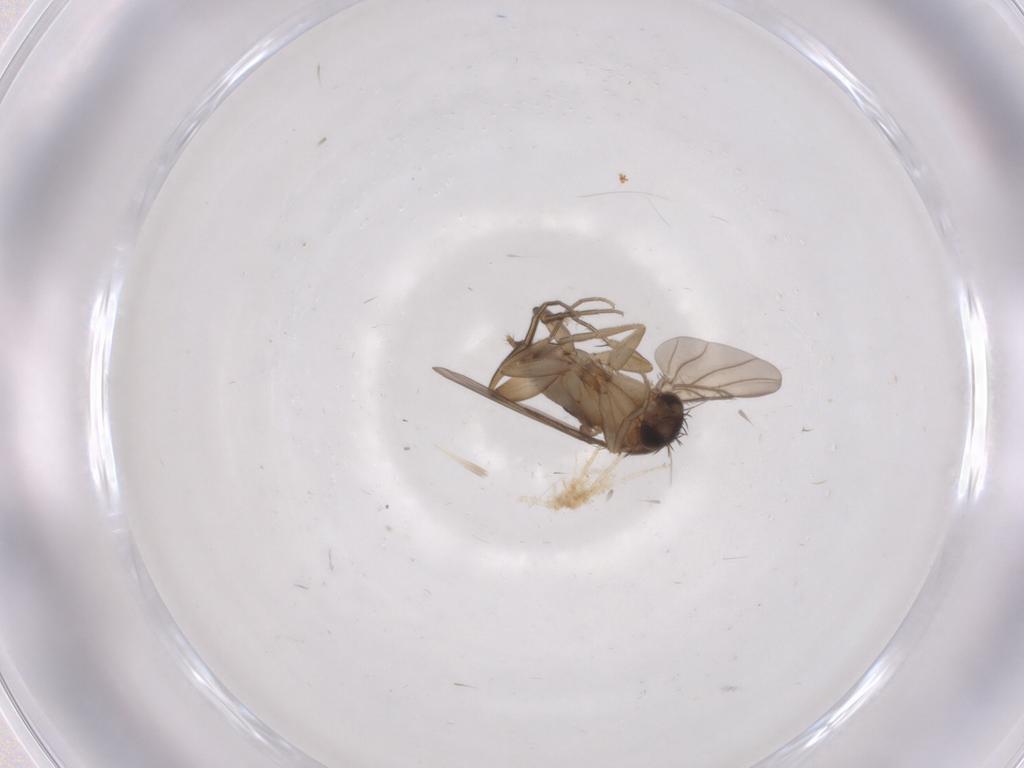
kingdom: Animalia
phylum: Arthropoda
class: Insecta
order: Diptera
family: Phoridae
